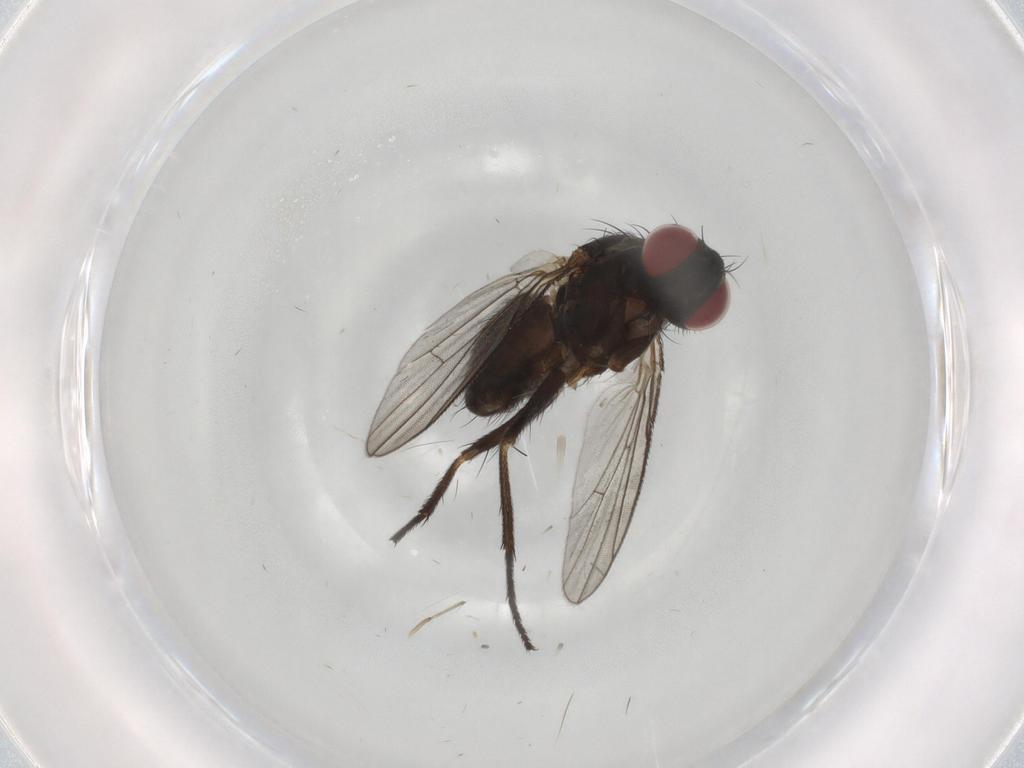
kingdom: Animalia
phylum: Arthropoda
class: Insecta
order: Diptera
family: Muscidae
